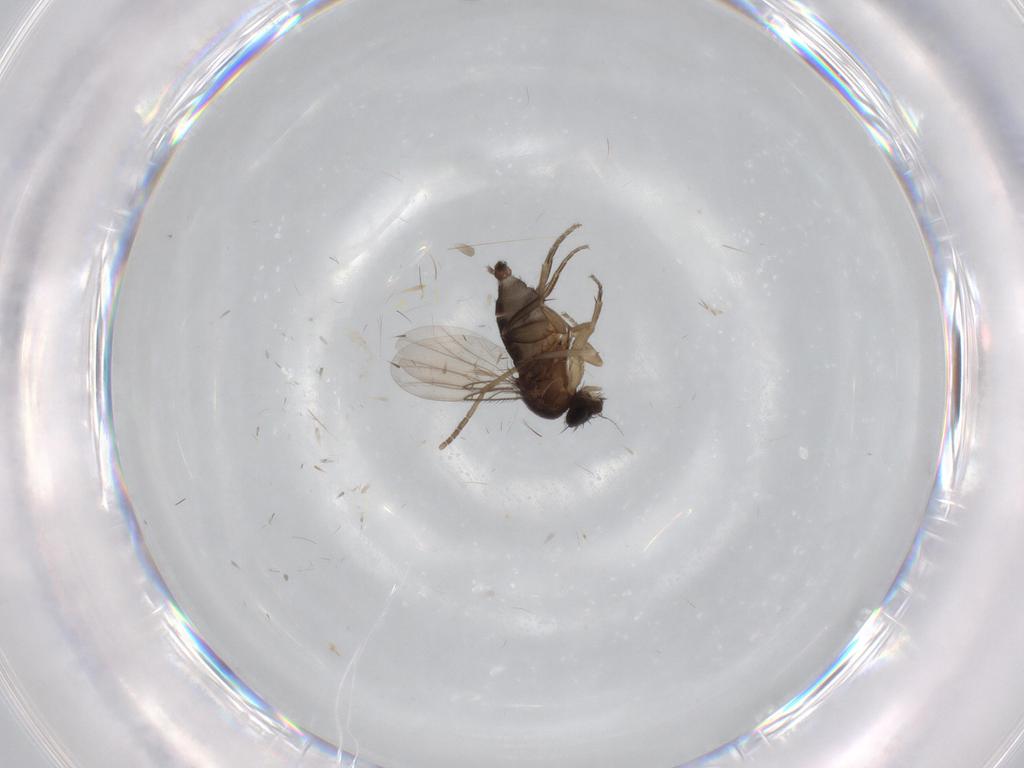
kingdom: Animalia
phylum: Arthropoda
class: Insecta
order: Diptera
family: Phoridae
